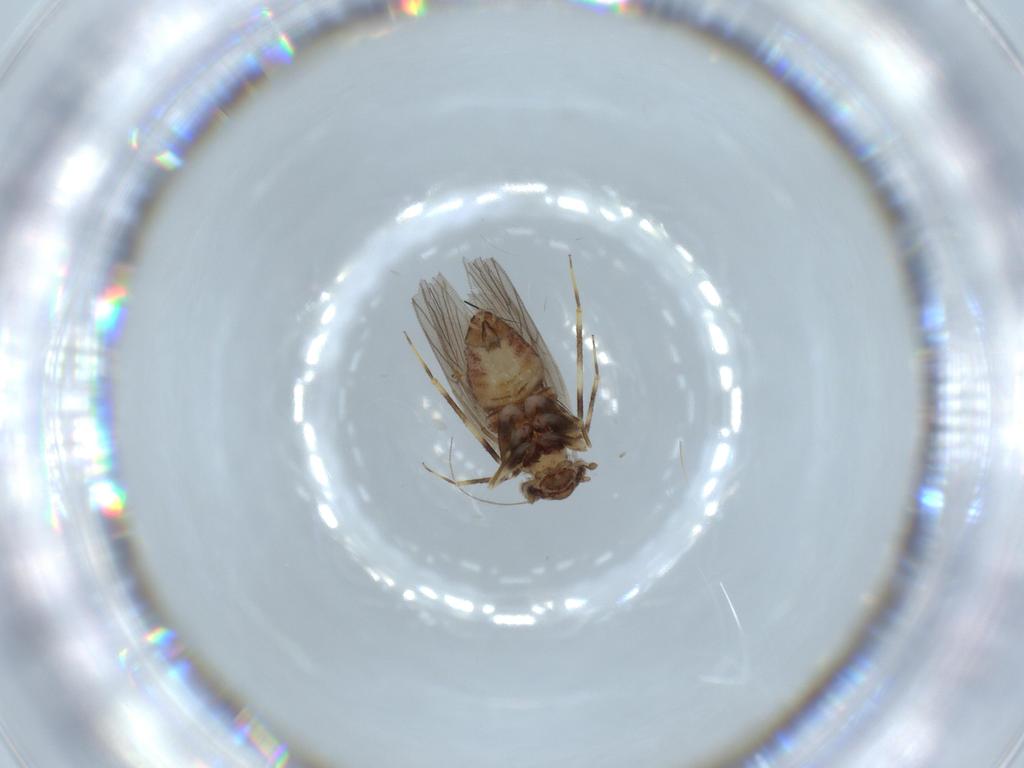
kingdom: Animalia
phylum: Arthropoda
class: Insecta
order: Psocodea
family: Lepidopsocidae
